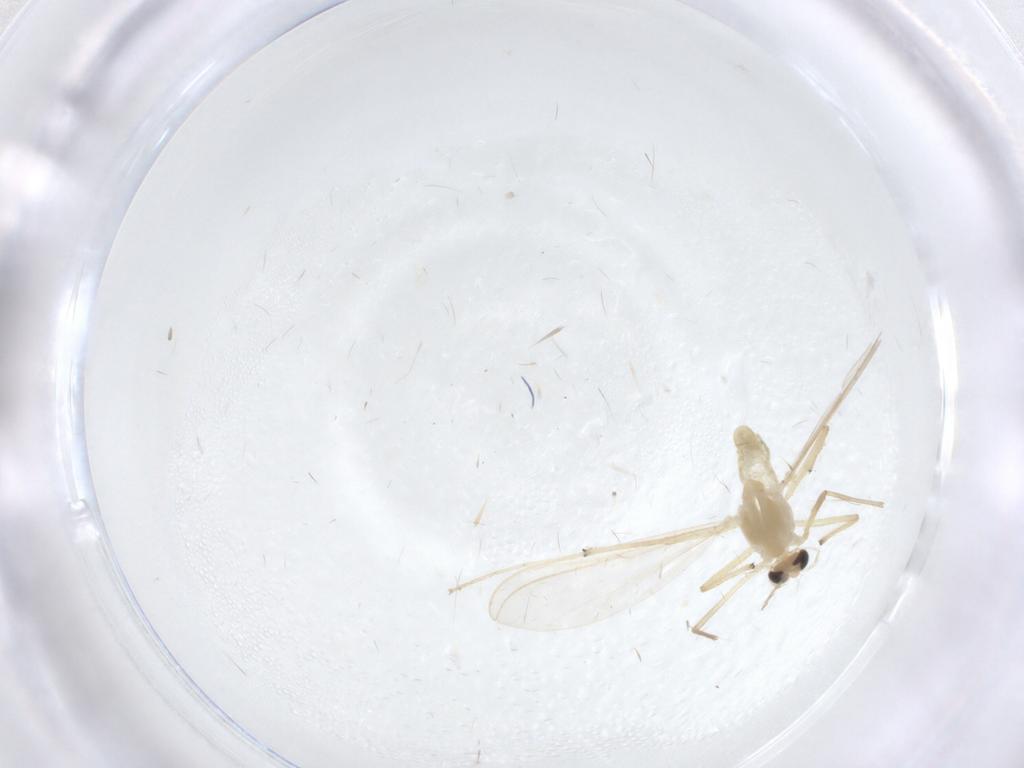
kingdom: Animalia
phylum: Arthropoda
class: Insecta
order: Diptera
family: Chironomidae
